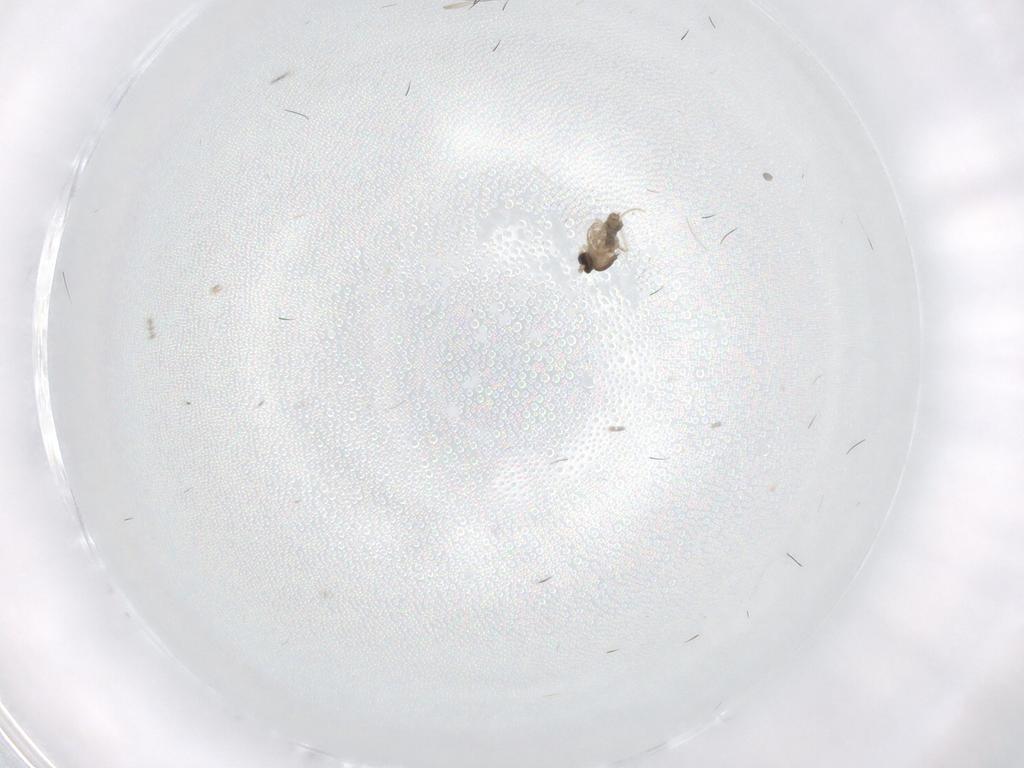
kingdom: Animalia
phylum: Arthropoda
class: Insecta
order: Diptera
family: Cecidomyiidae
